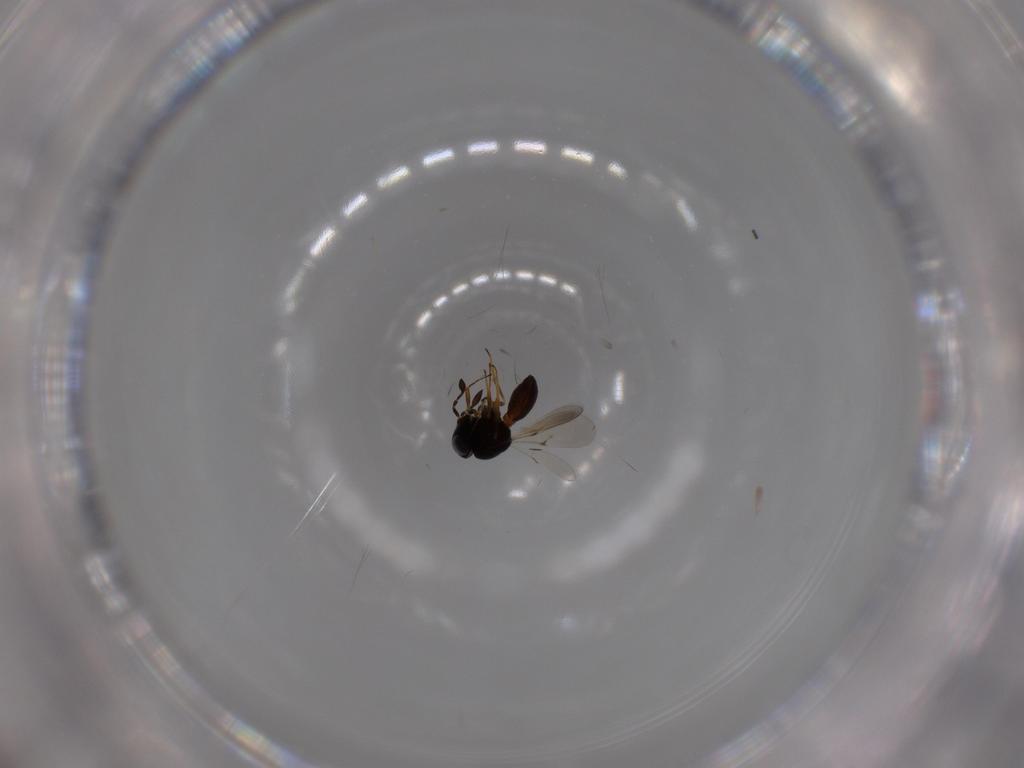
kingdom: Animalia
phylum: Arthropoda
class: Insecta
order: Hymenoptera
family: Scelionidae
